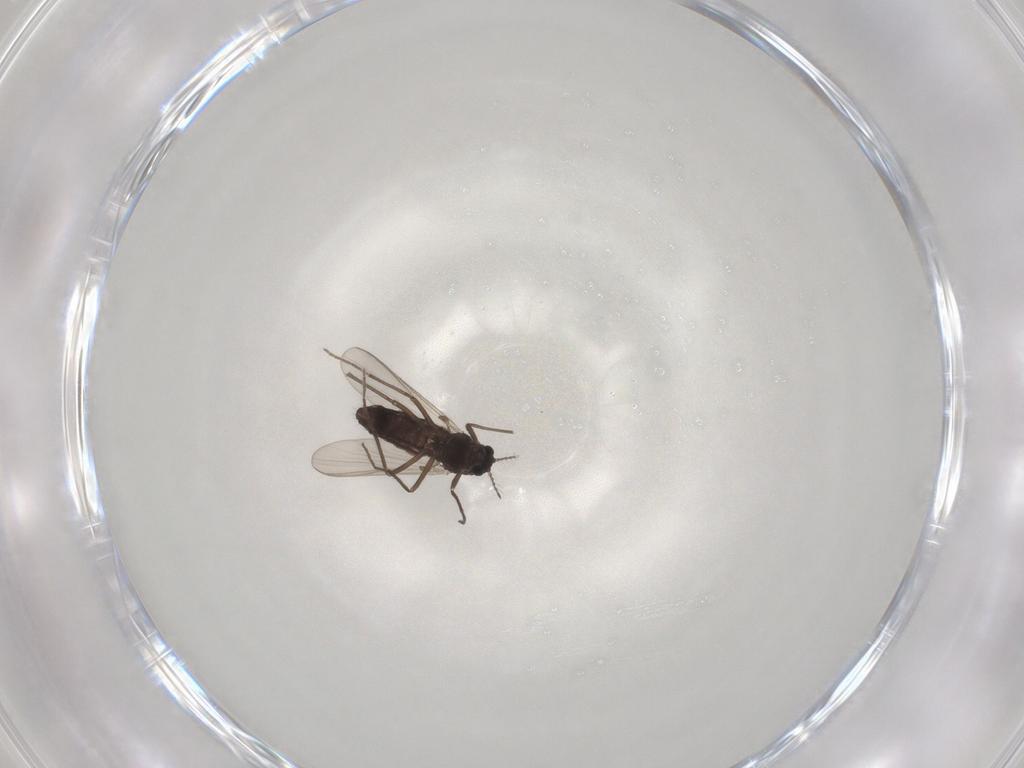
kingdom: Animalia
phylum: Arthropoda
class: Insecta
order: Diptera
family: Chironomidae
